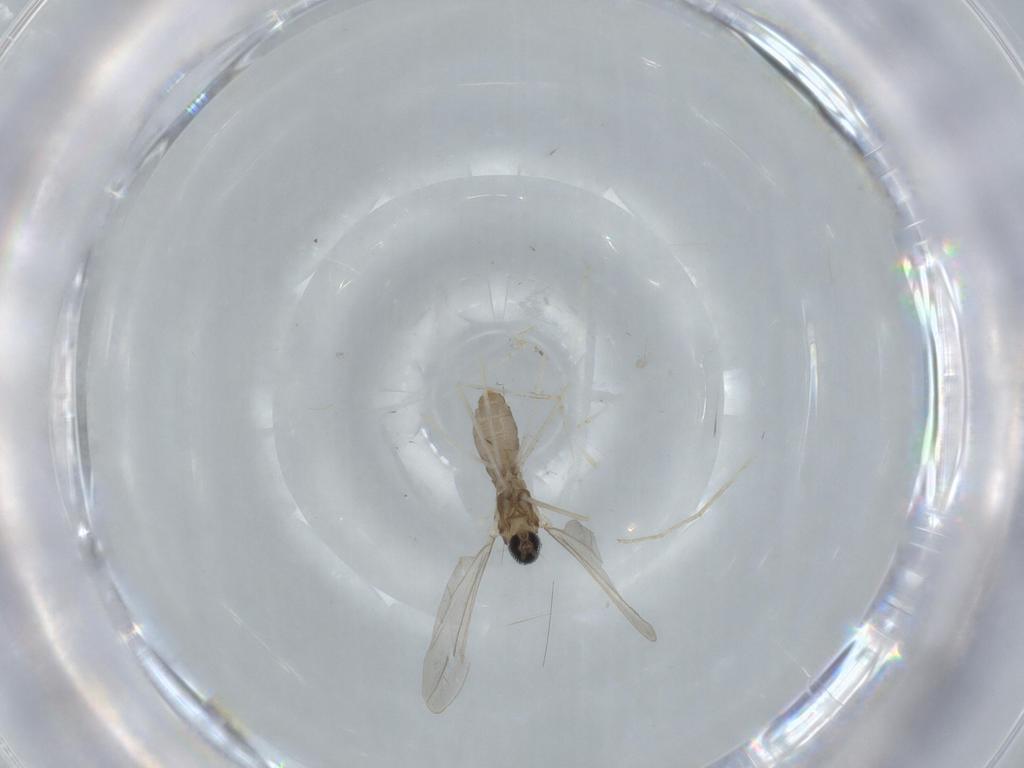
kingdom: Animalia
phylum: Arthropoda
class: Insecta
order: Diptera
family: Cecidomyiidae
